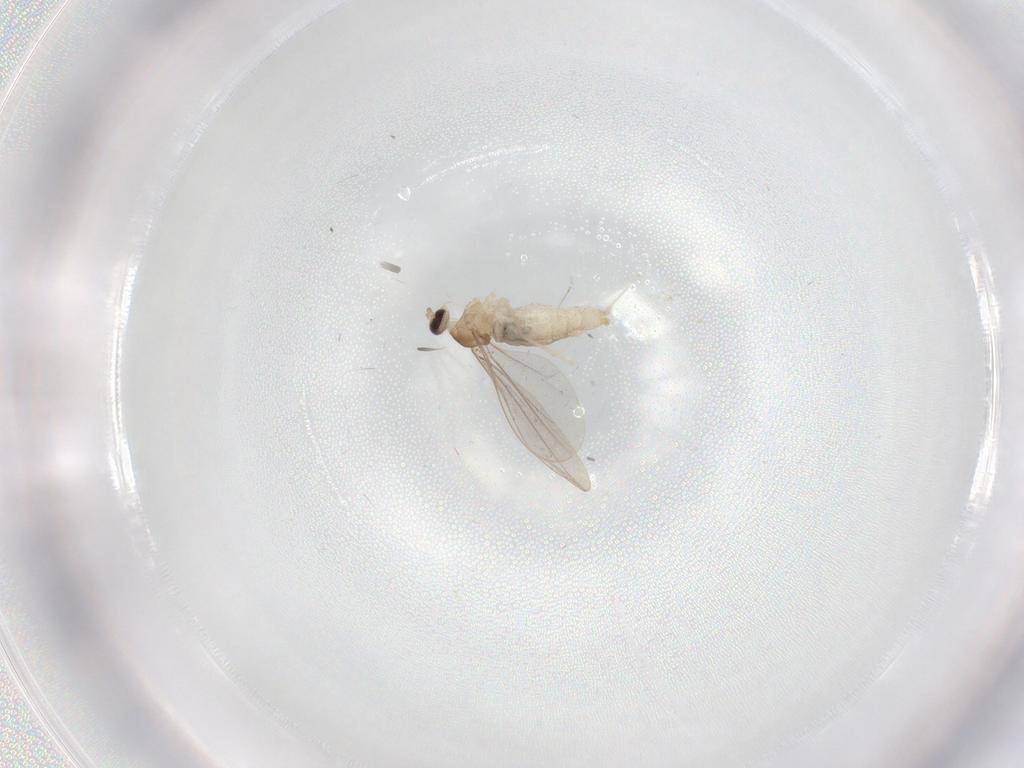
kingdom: Animalia
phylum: Arthropoda
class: Insecta
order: Diptera
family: Cecidomyiidae
